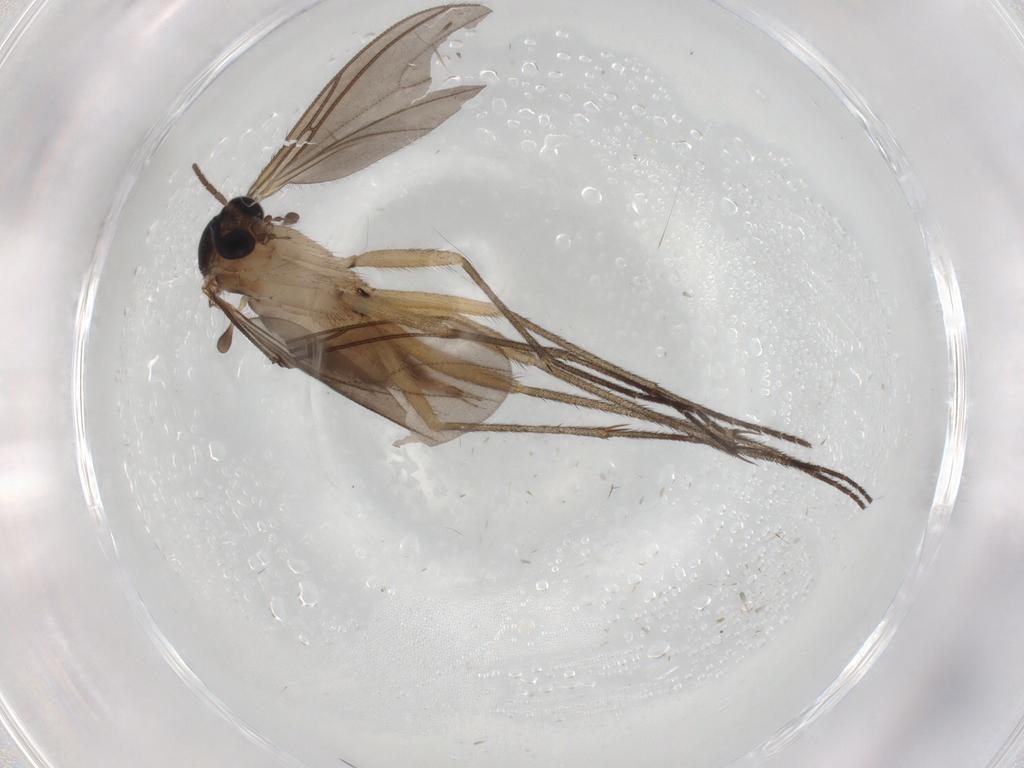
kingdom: Animalia
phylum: Arthropoda
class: Insecta
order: Diptera
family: Sciaridae
